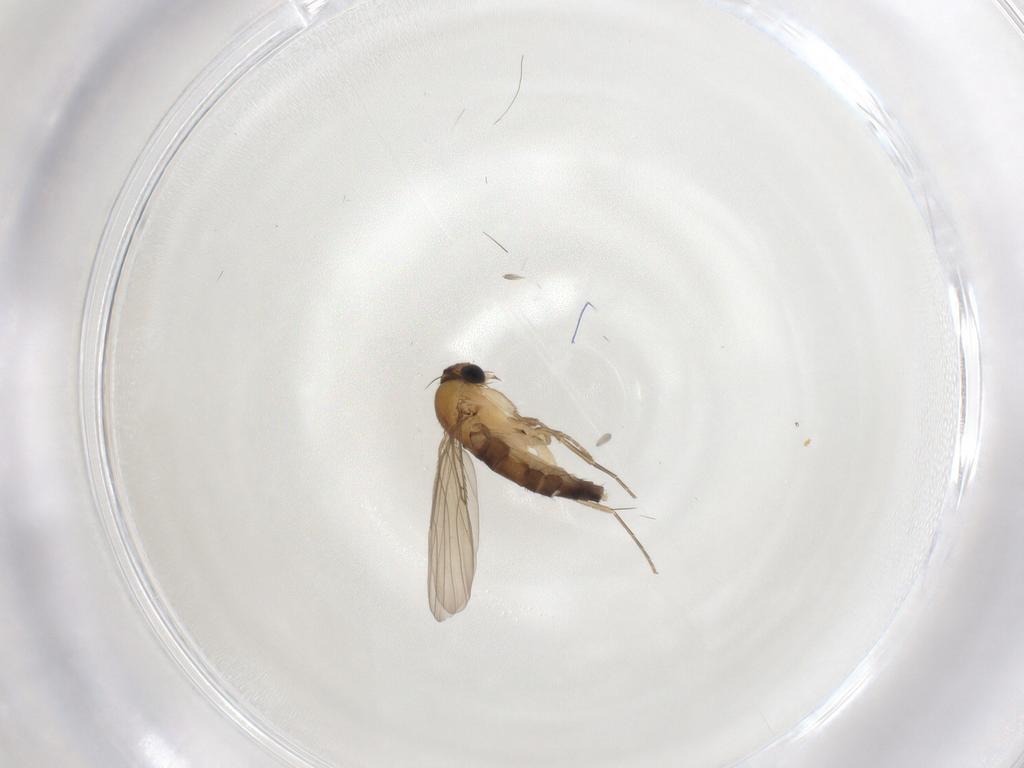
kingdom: Animalia
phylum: Arthropoda
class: Insecta
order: Diptera
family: Phoridae
